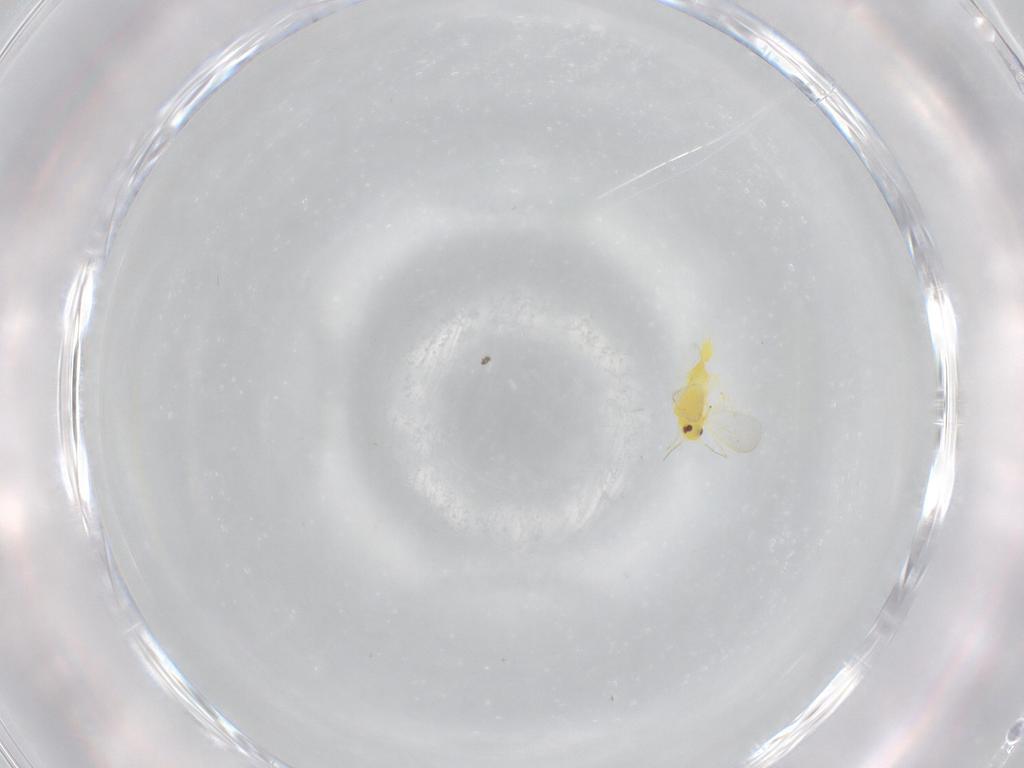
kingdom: Animalia
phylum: Arthropoda
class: Insecta
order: Hemiptera
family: Aleyrodidae
